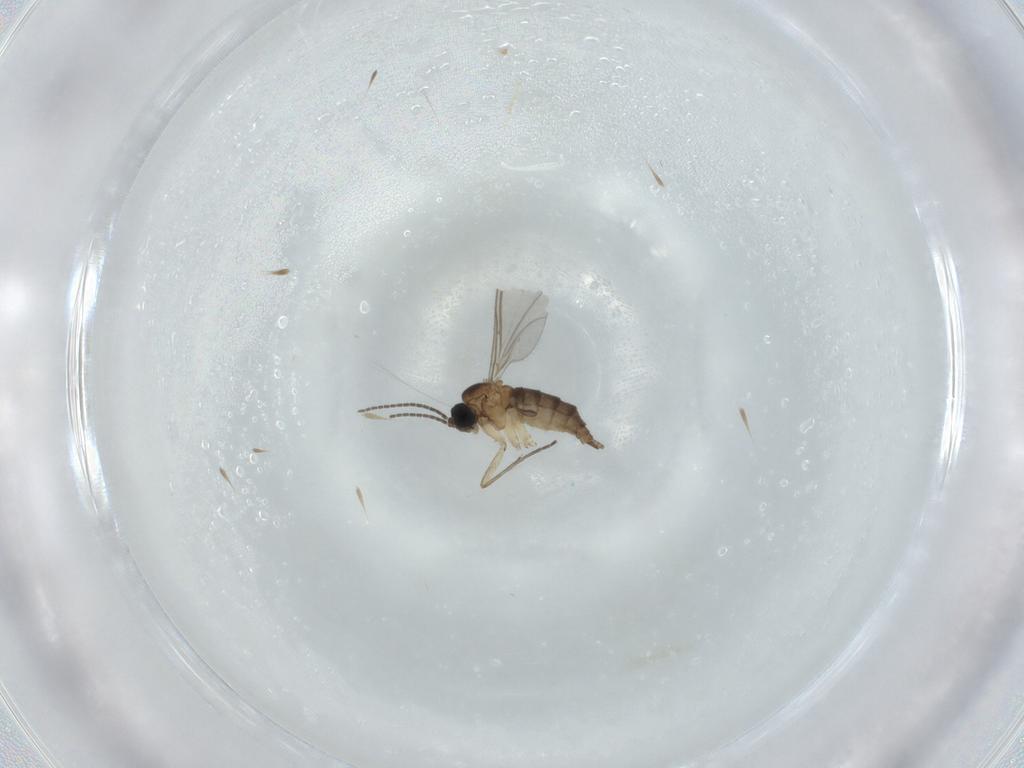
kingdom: Animalia
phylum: Arthropoda
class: Insecta
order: Diptera
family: Sciaridae
